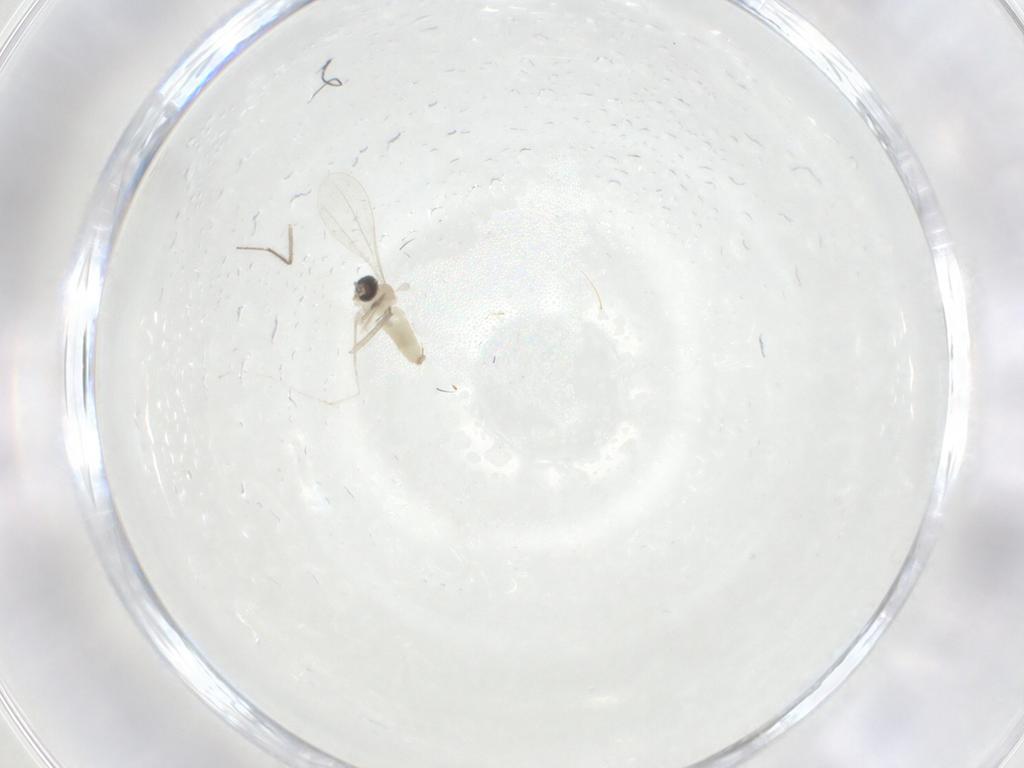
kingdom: Animalia
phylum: Arthropoda
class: Insecta
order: Diptera
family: Cecidomyiidae
